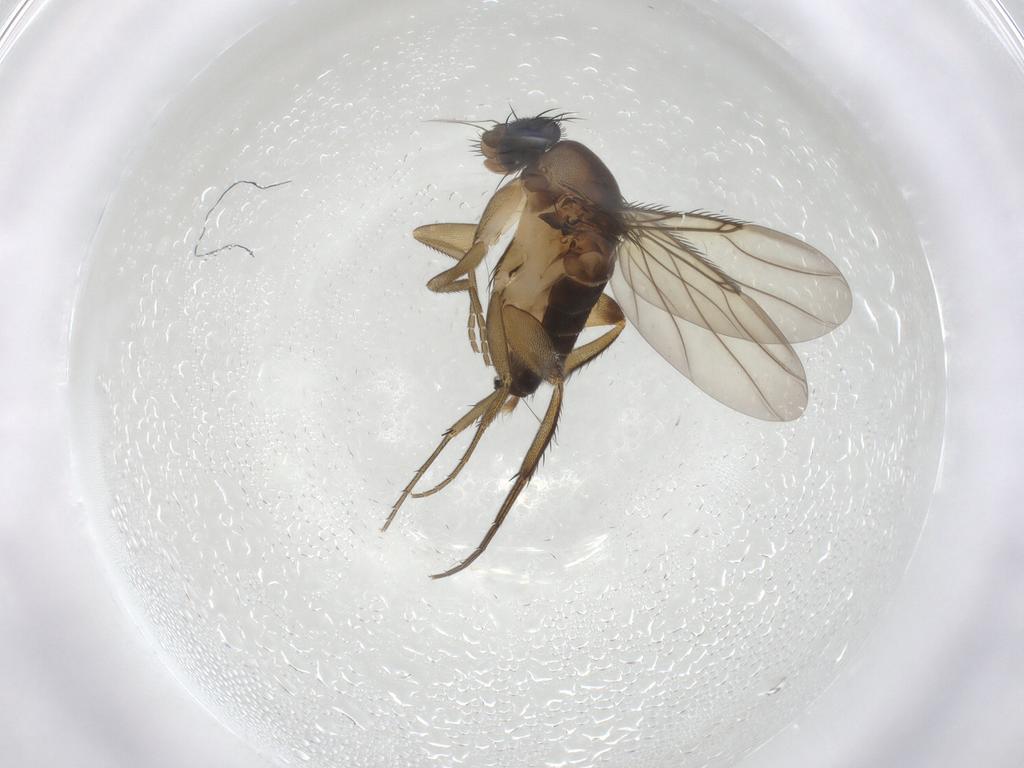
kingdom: Animalia
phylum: Arthropoda
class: Insecta
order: Diptera
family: Phoridae
